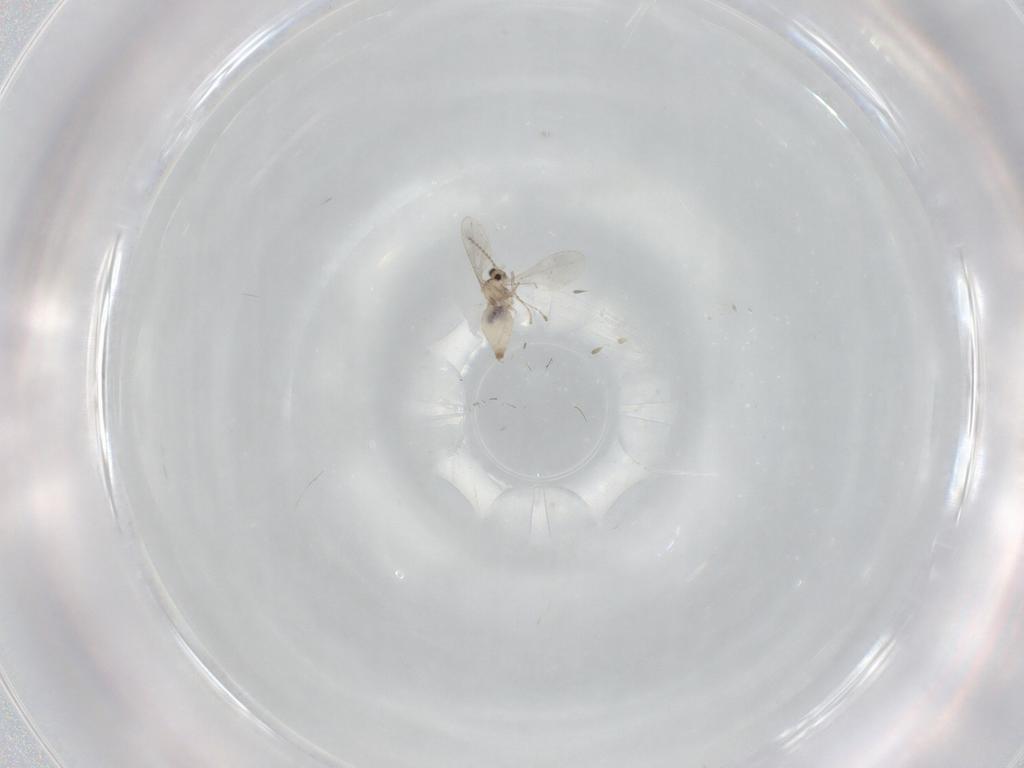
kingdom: Animalia
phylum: Arthropoda
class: Insecta
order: Diptera
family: Cecidomyiidae
